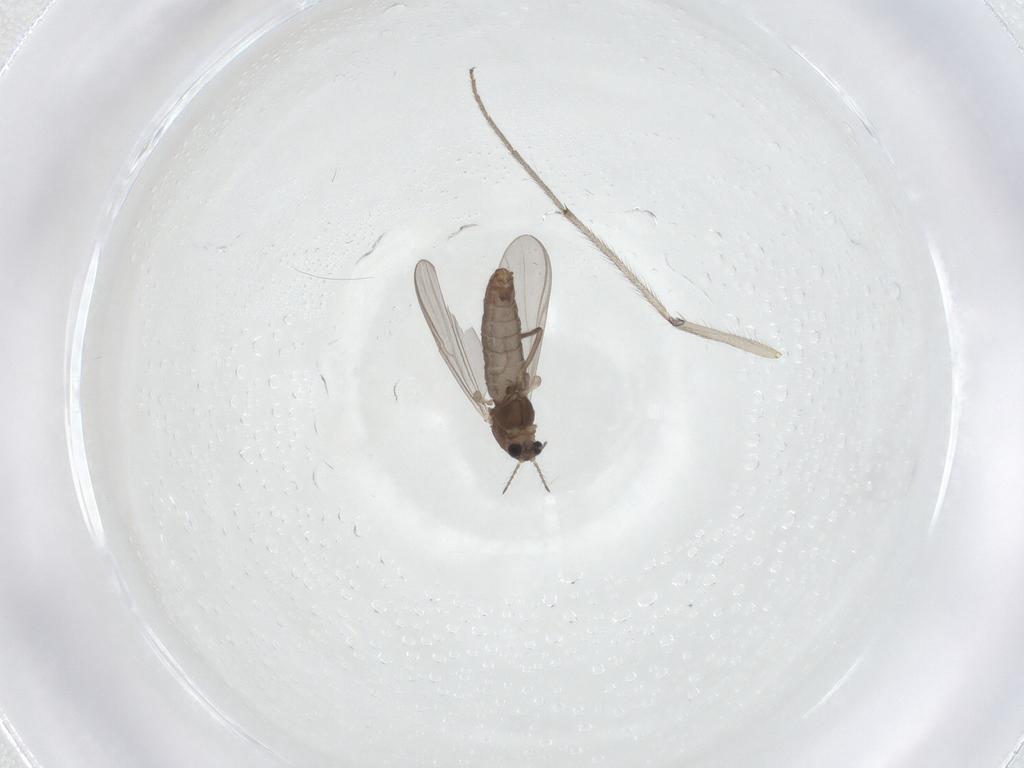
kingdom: Animalia
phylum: Arthropoda
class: Insecta
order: Diptera
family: Chironomidae
